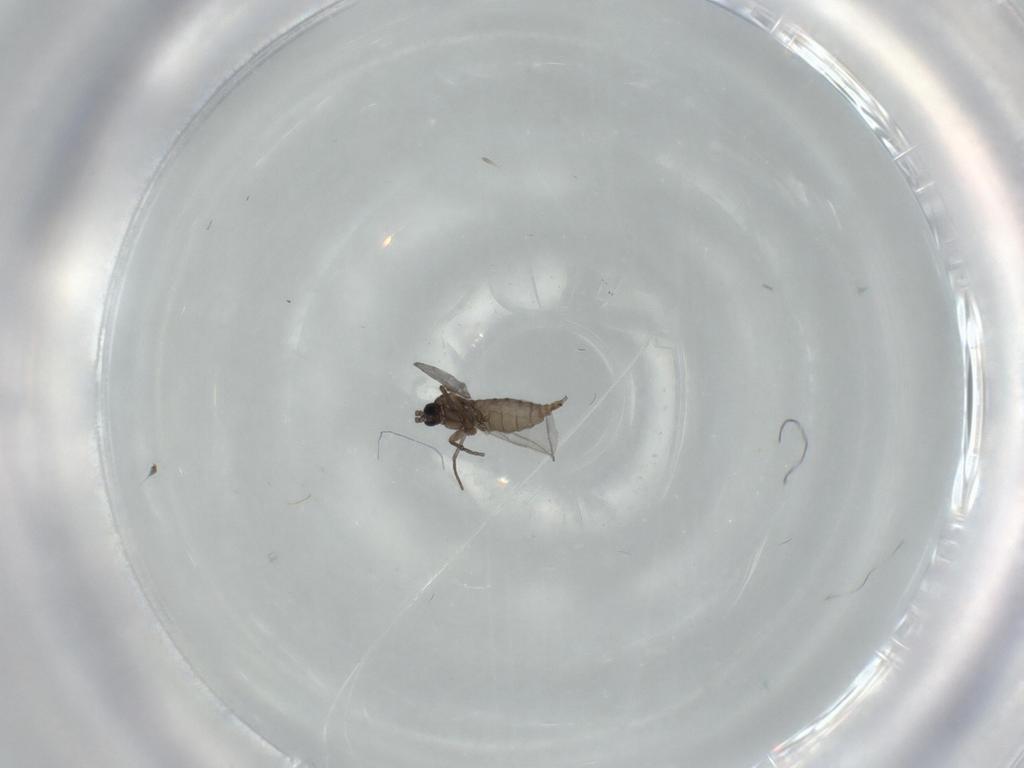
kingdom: Animalia
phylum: Arthropoda
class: Insecta
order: Diptera
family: Sciaridae
